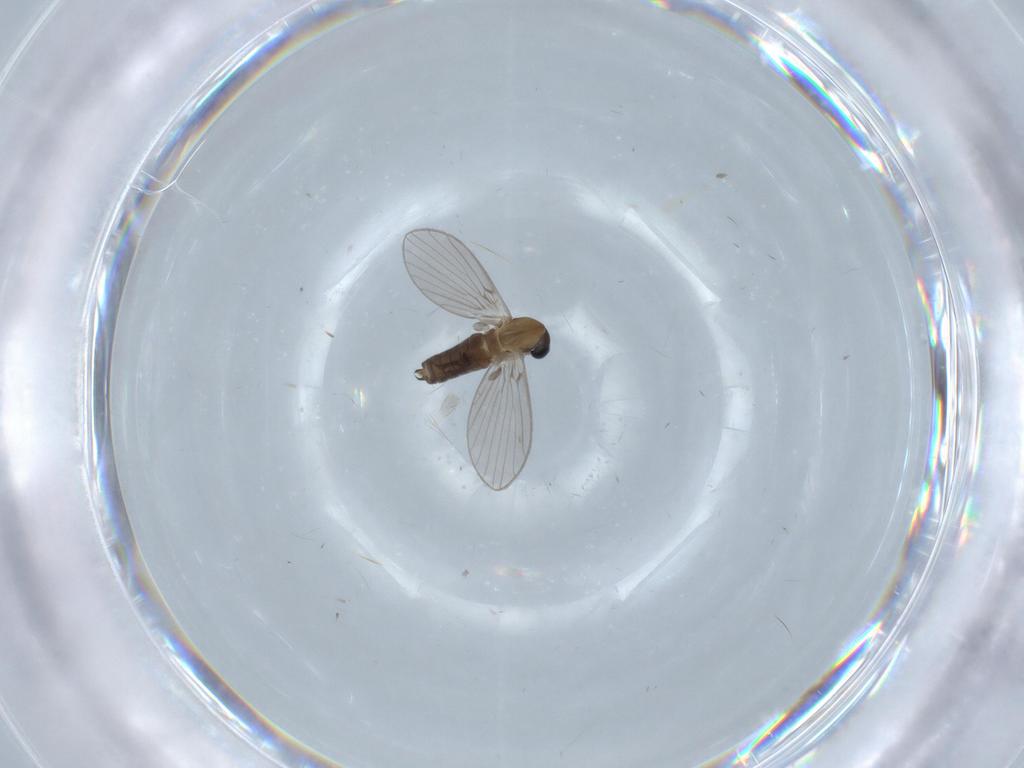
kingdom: Animalia
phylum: Arthropoda
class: Insecta
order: Diptera
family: Psychodidae
